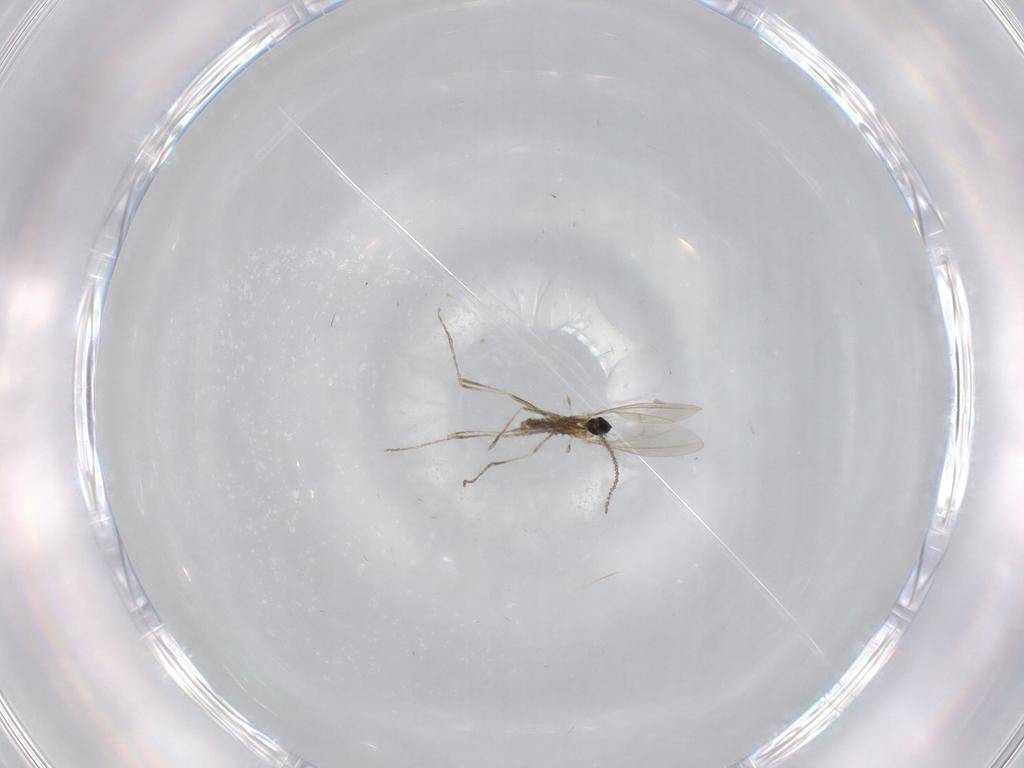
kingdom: Animalia
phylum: Arthropoda
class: Insecta
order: Diptera
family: Cecidomyiidae
